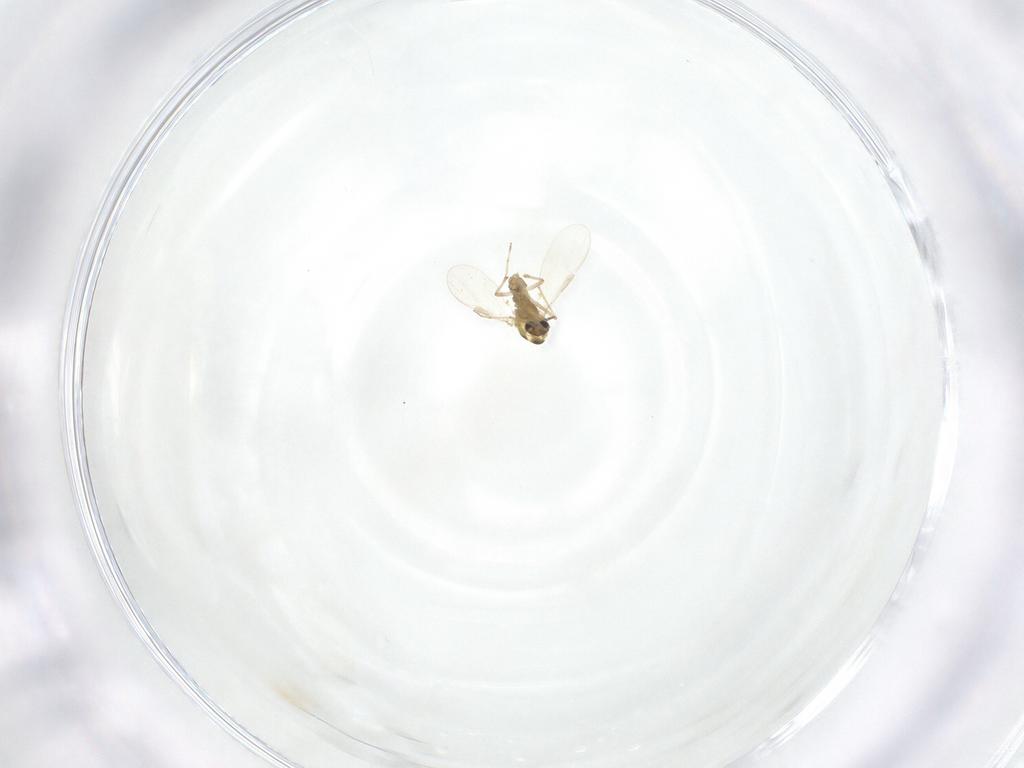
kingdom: Animalia
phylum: Arthropoda
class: Insecta
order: Diptera
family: Chironomidae
